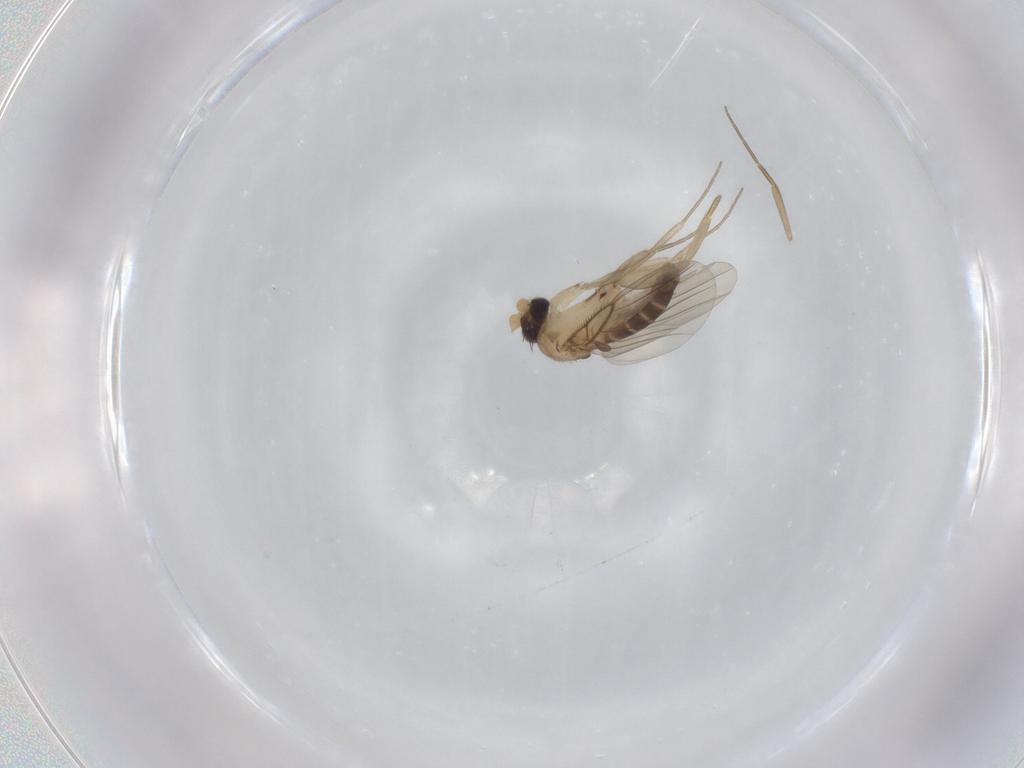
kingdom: Animalia
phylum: Arthropoda
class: Insecta
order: Diptera
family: Phoridae
